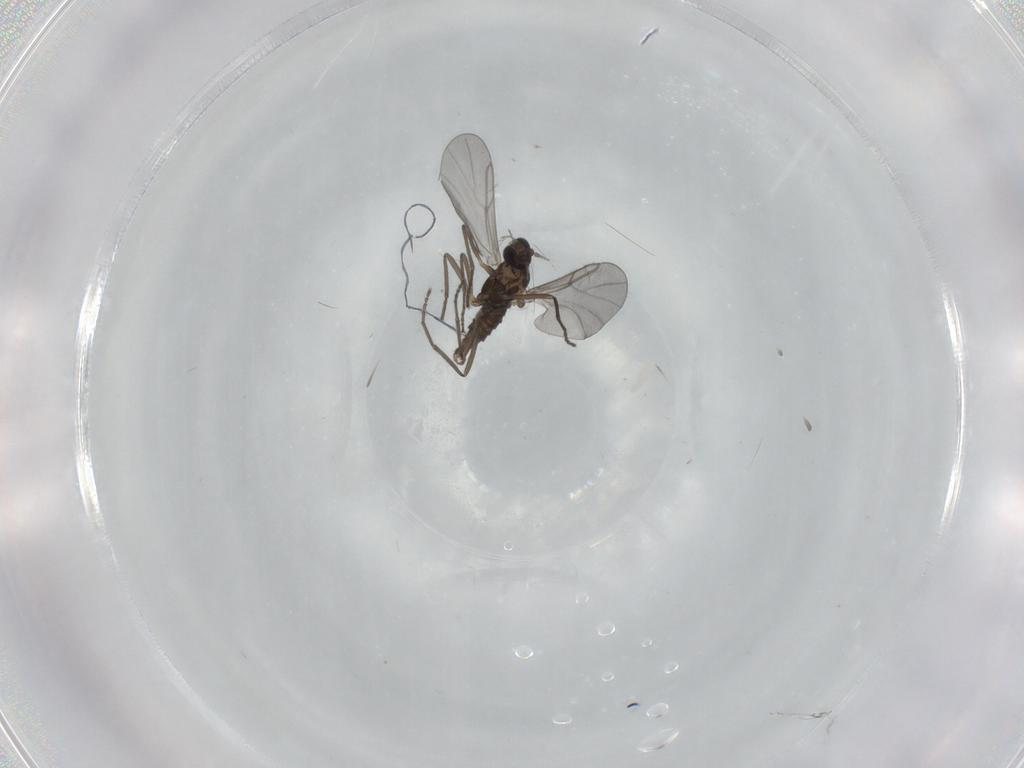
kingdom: Animalia
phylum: Arthropoda
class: Insecta
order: Diptera
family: Cecidomyiidae
